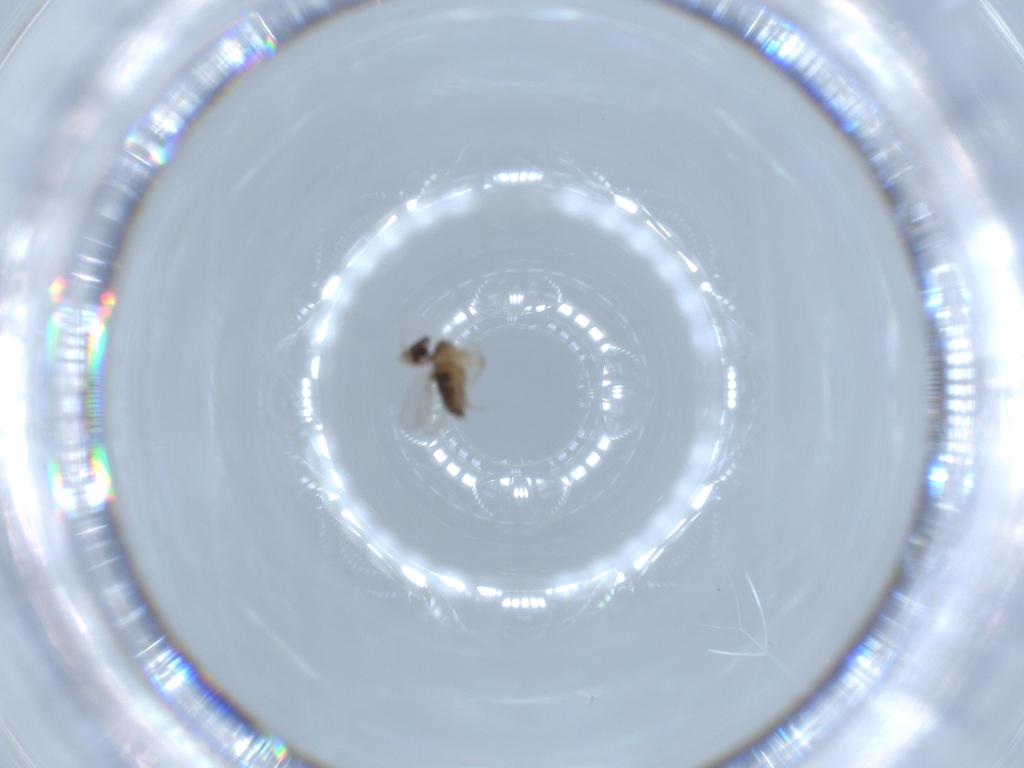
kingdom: Animalia
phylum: Arthropoda
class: Insecta
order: Diptera
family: Phoridae
